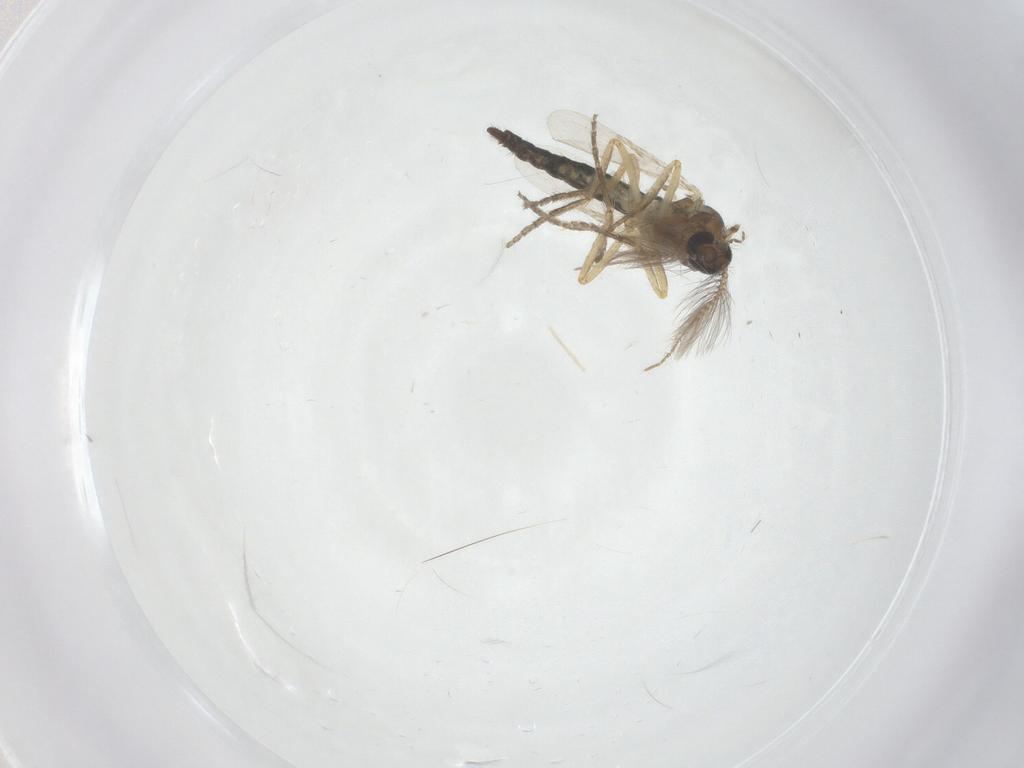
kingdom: Animalia
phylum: Arthropoda
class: Insecta
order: Diptera
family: Ceratopogonidae
